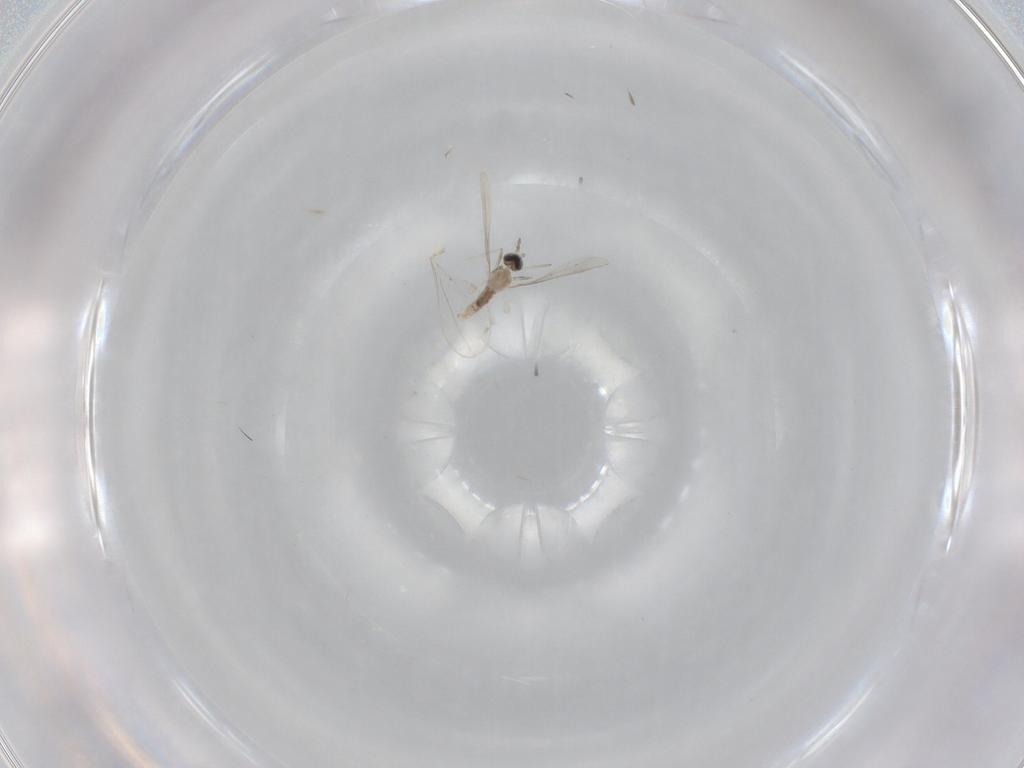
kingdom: Animalia
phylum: Arthropoda
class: Insecta
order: Diptera
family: Cecidomyiidae
